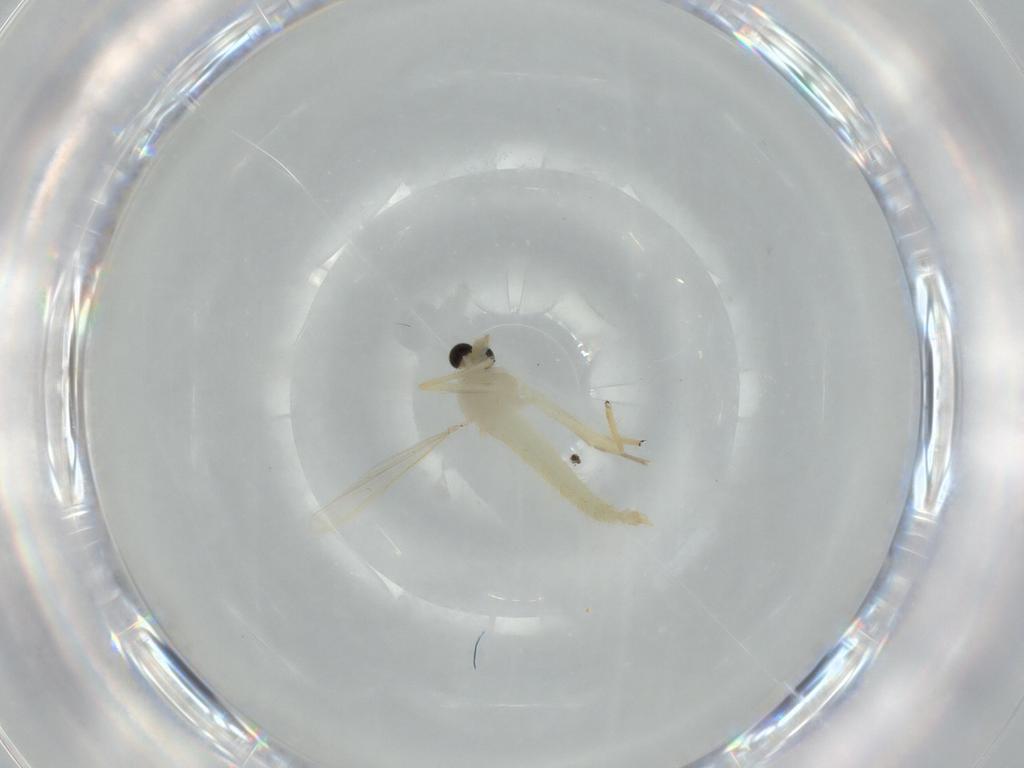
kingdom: Animalia
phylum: Arthropoda
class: Insecta
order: Diptera
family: Chironomidae
